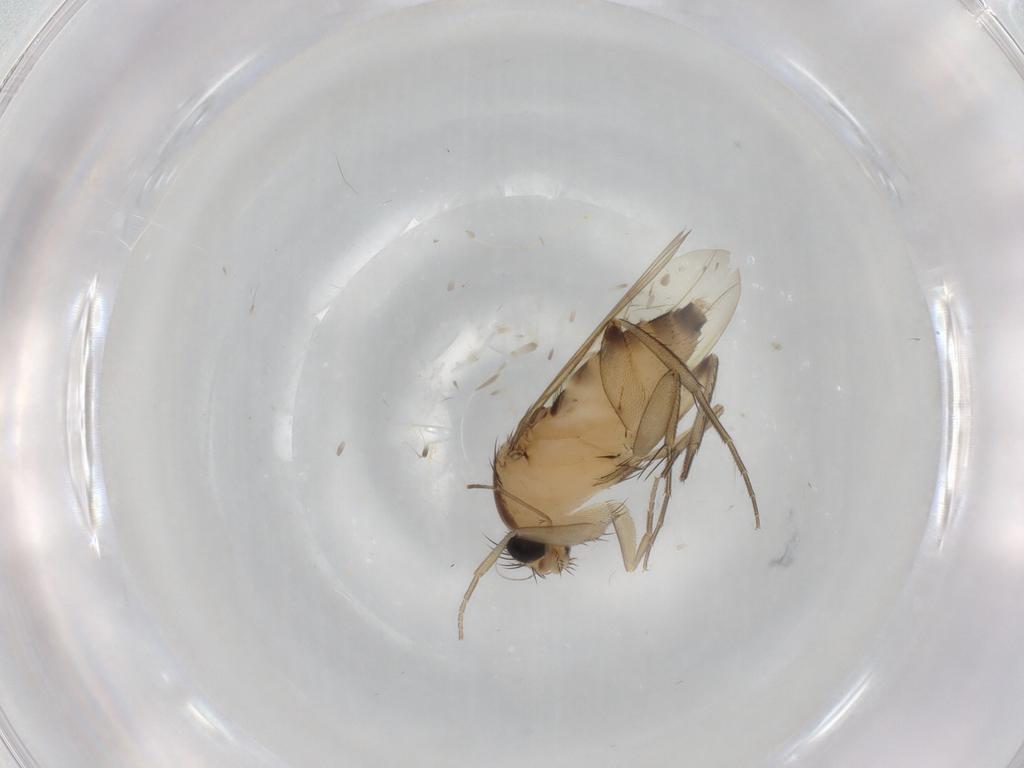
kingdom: Animalia
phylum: Arthropoda
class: Insecta
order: Diptera
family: Phoridae
